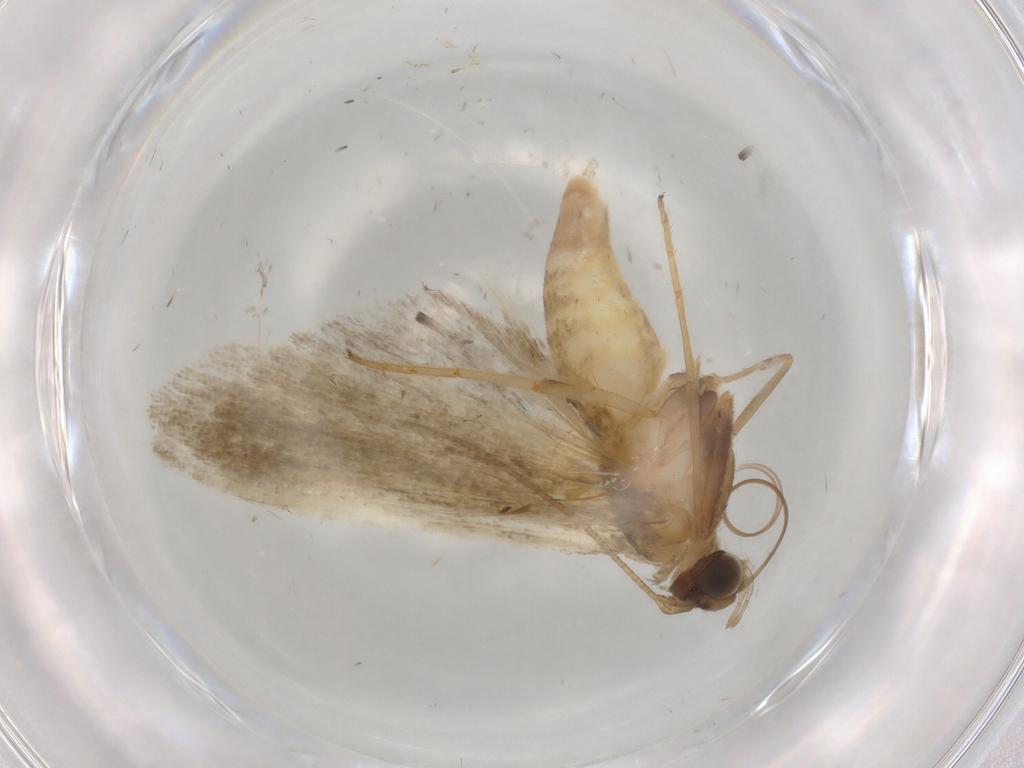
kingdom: Animalia
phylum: Arthropoda
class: Insecta
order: Lepidoptera
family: Noctuidae
